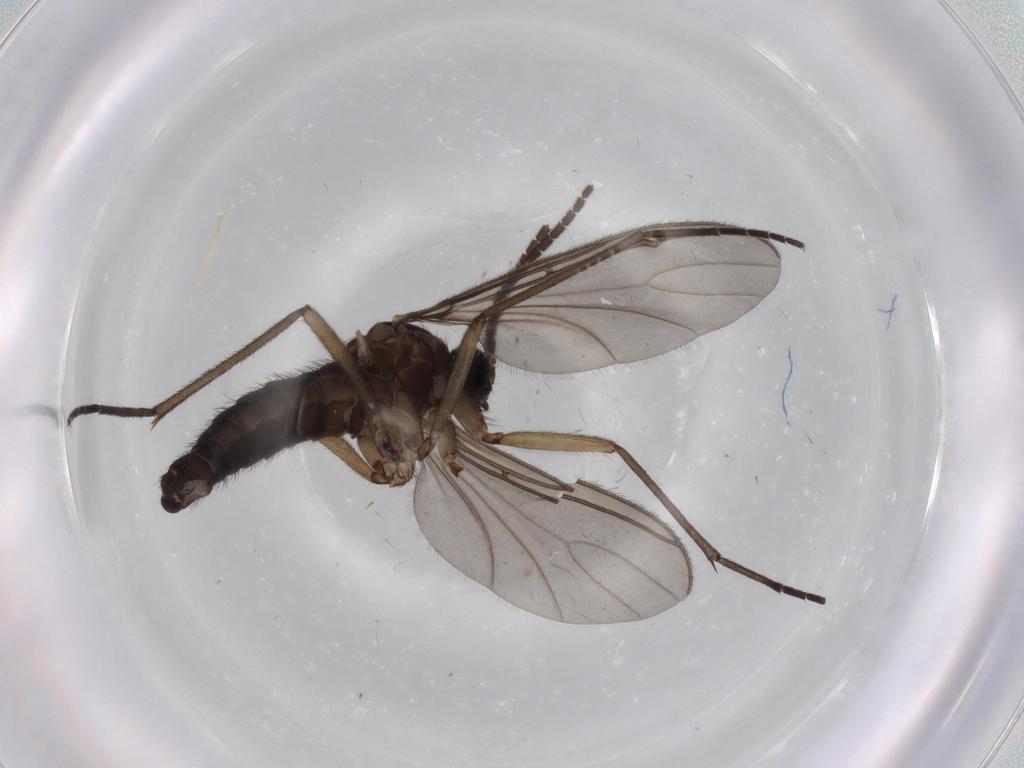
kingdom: Animalia
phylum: Arthropoda
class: Insecta
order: Diptera
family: Sciaridae
